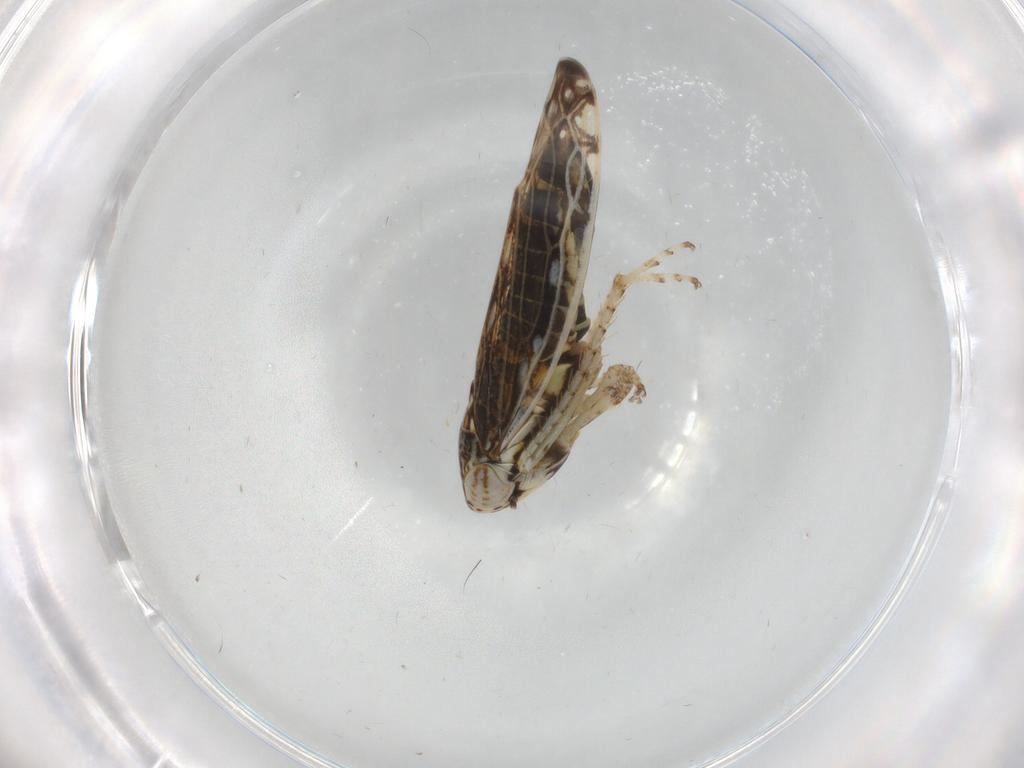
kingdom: Animalia
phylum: Arthropoda
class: Insecta
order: Hemiptera
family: Cicadellidae
